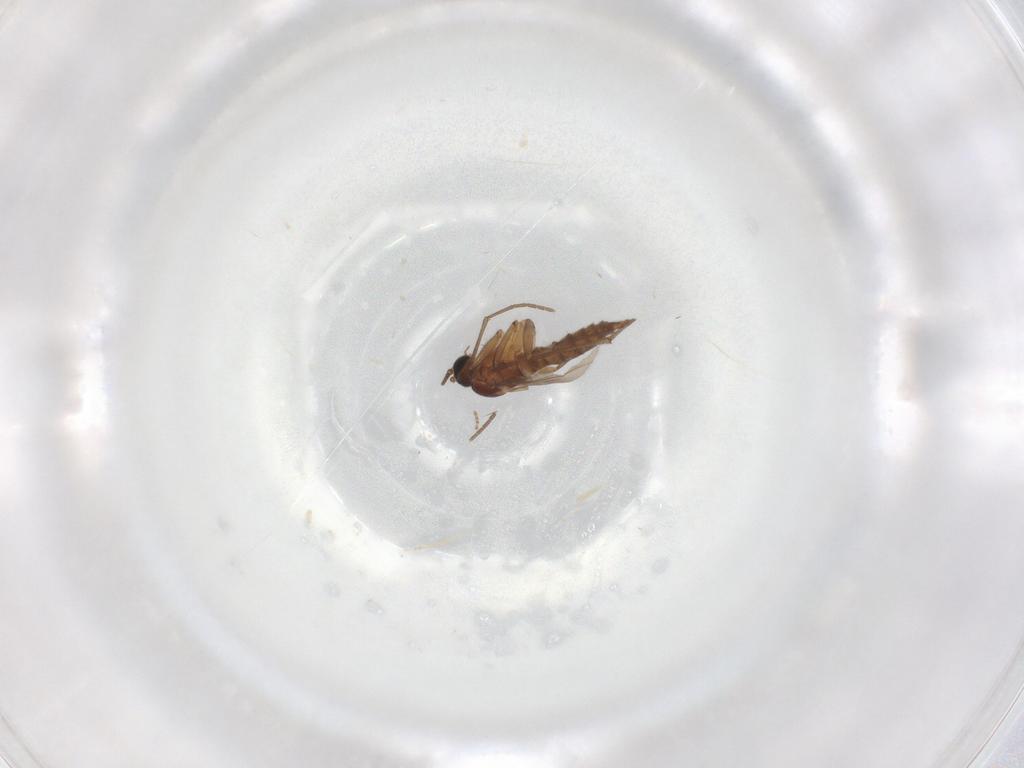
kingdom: Animalia
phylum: Arthropoda
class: Insecta
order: Diptera
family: Sciaridae
